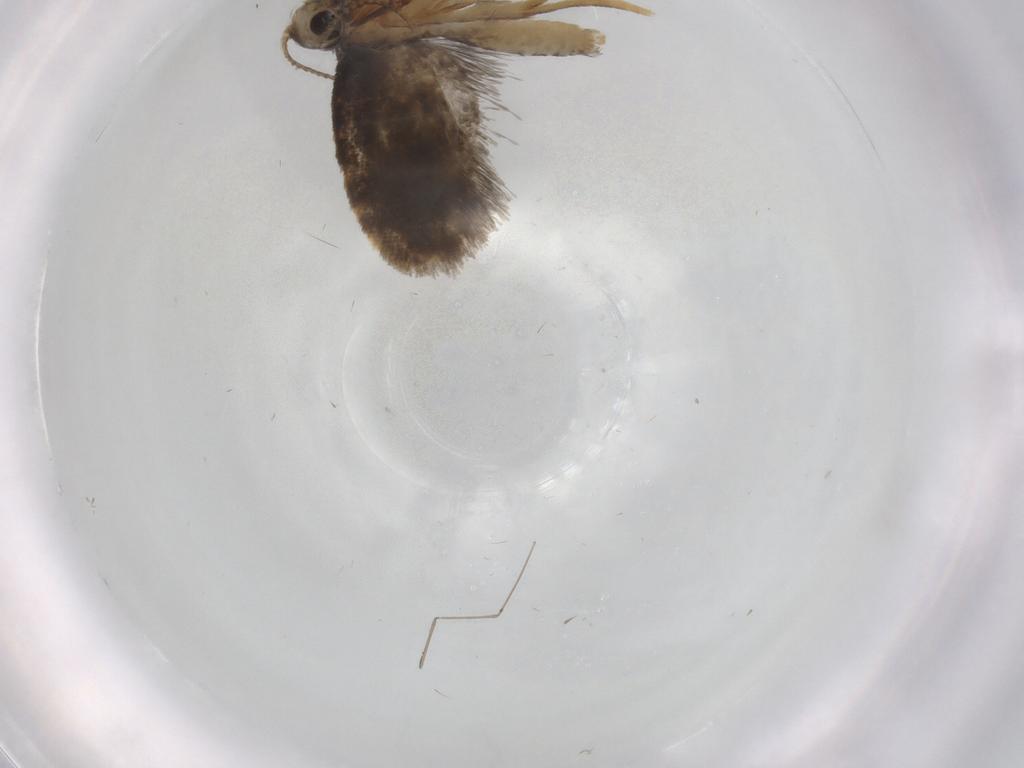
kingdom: Animalia
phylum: Arthropoda
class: Insecta
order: Lepidoptera
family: Psychidae
